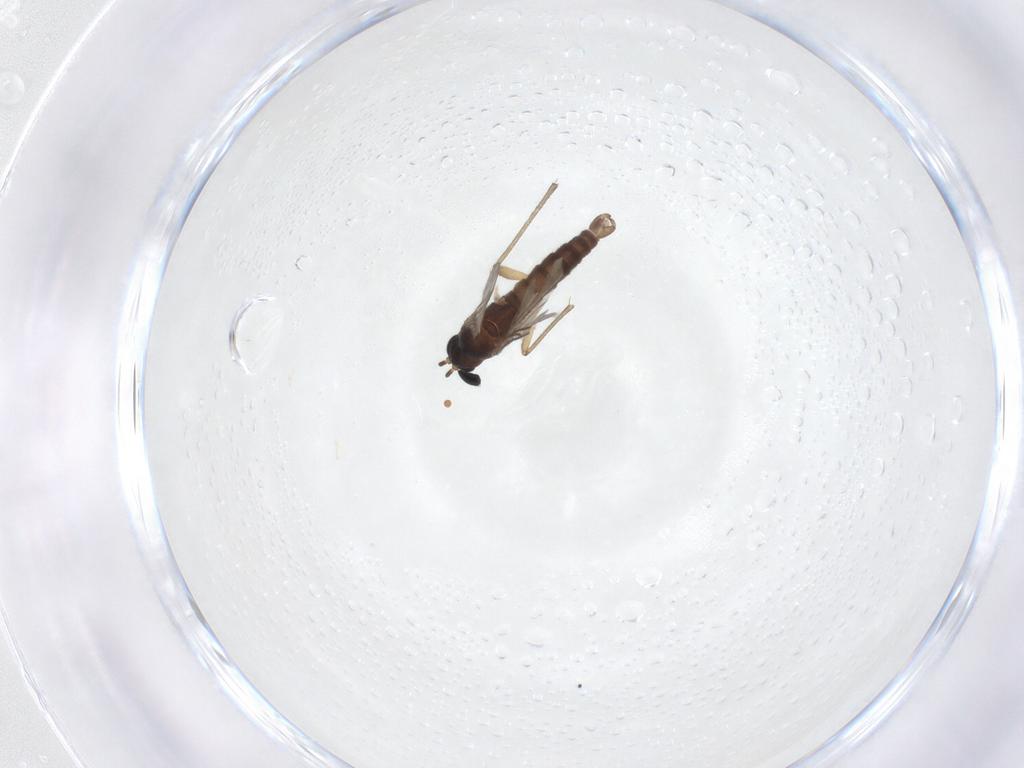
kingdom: Animalia
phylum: Arthropoda
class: Insecta
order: Diptera
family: Sciaridae
